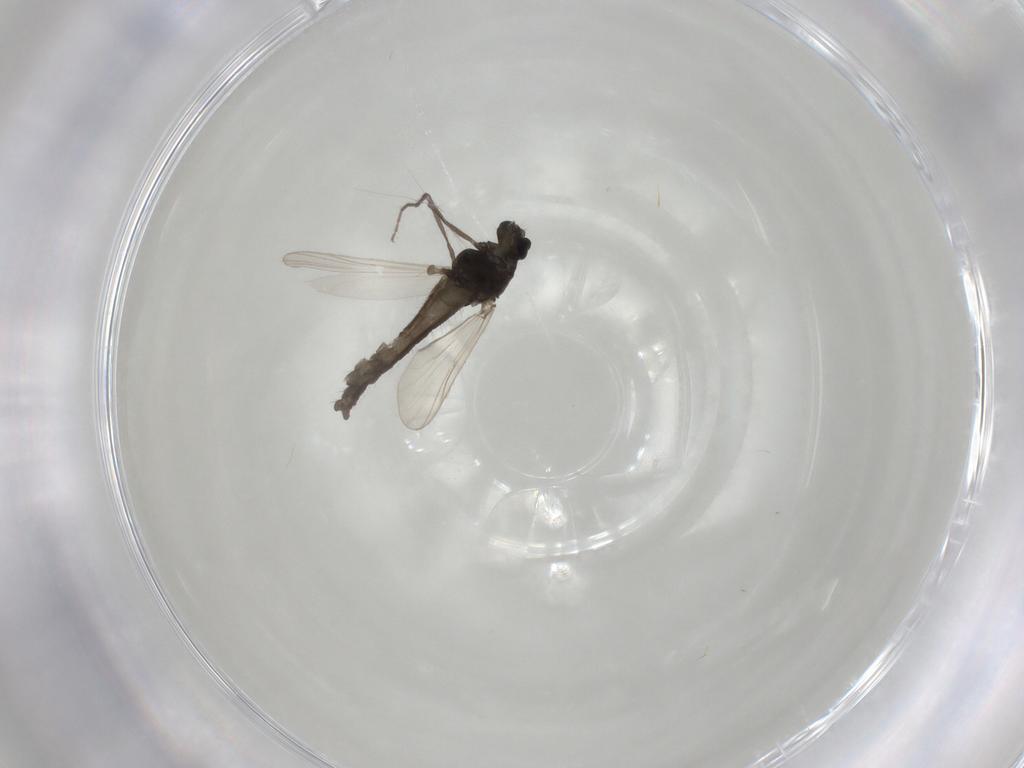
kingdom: Animalia
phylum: Arthropoda
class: Insecta
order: Diptera
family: Chironomidae
